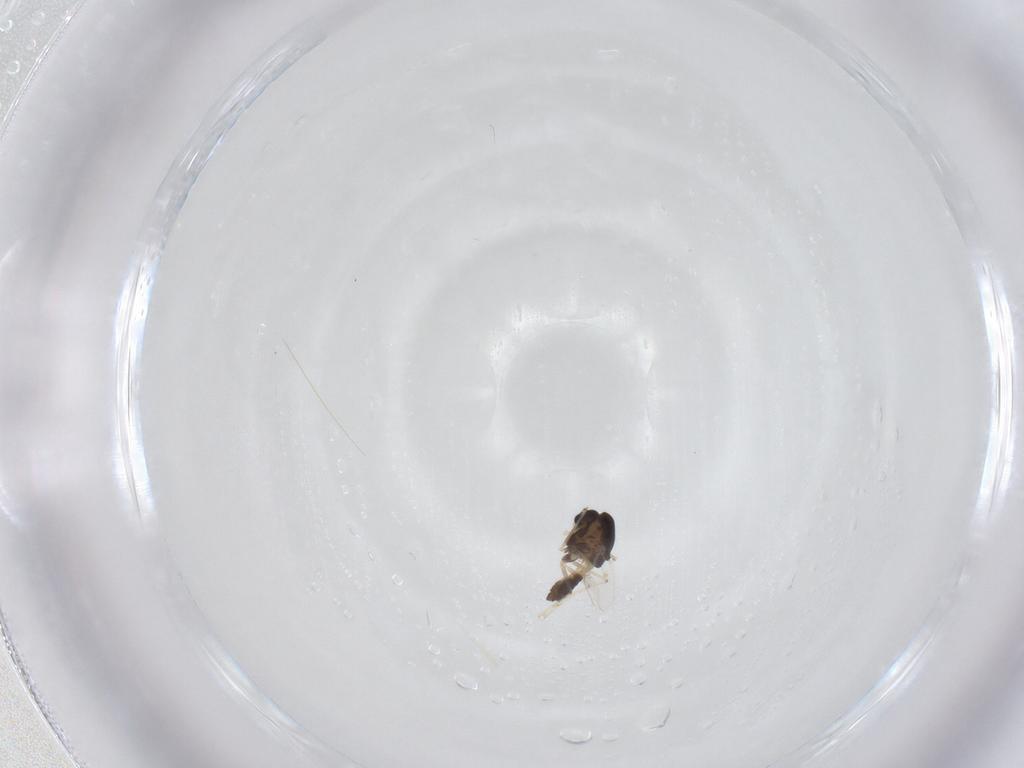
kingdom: Animalia
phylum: Arthropoda
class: Insecta
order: Diptera
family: Chironomidae
